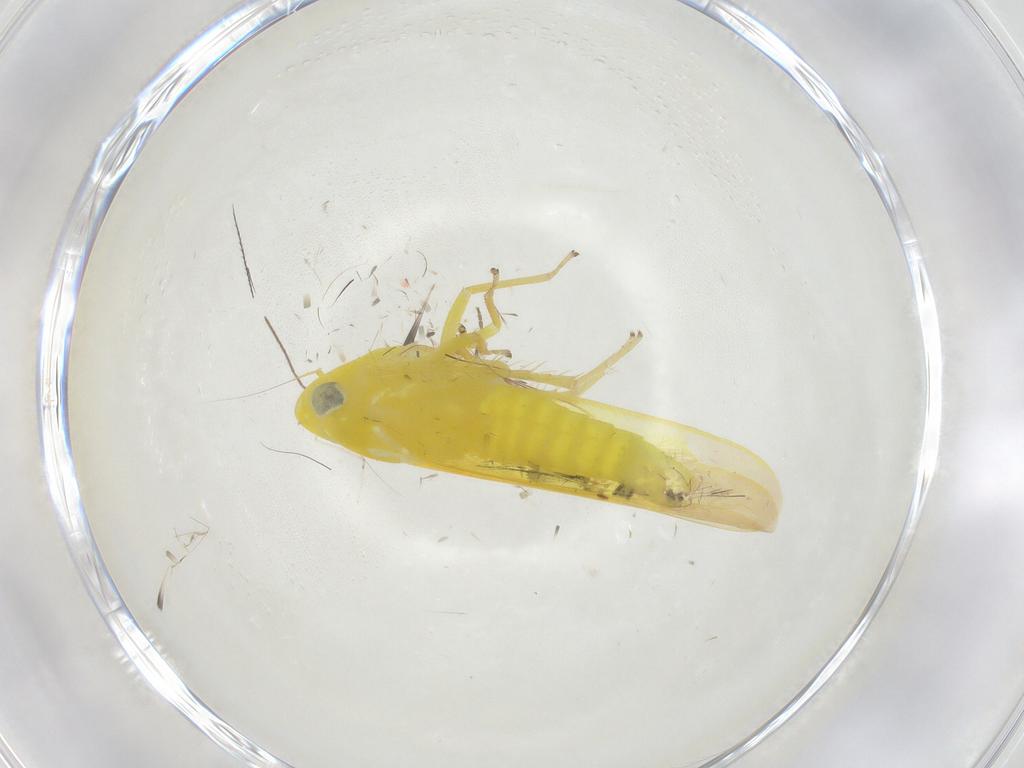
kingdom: Animalia
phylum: Arthropoda
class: Insecta
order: Hemiptera
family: Cicadellidae
